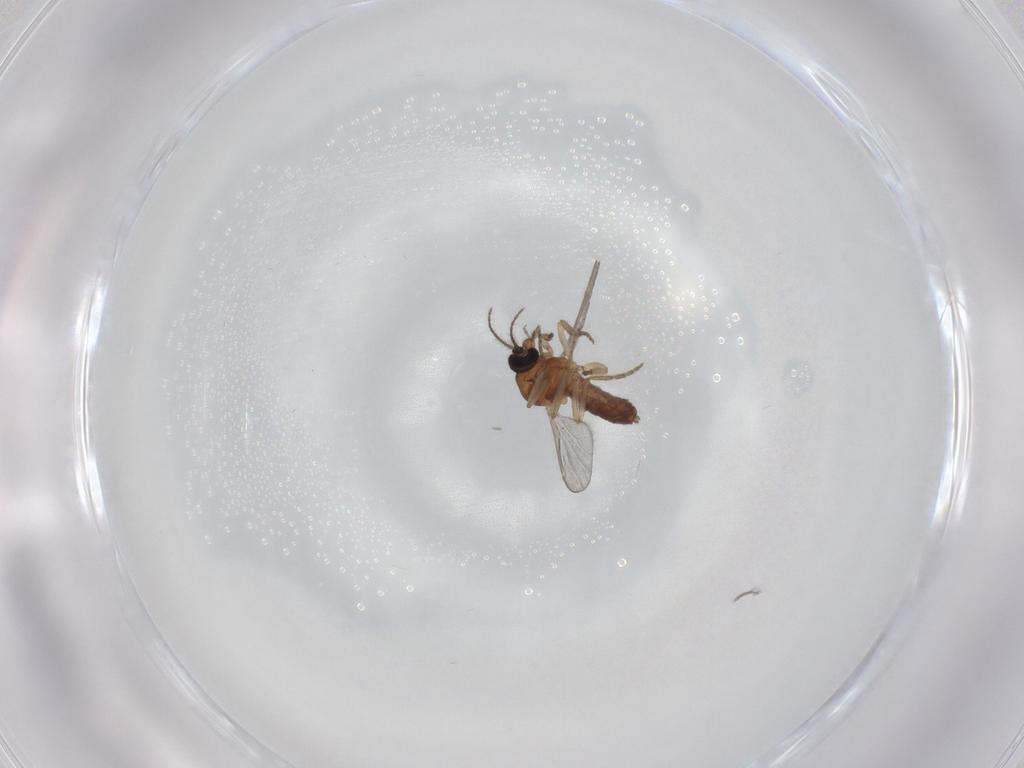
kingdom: Animalia
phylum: Arthropoda
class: Insecta
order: Diptera
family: Ceratopogonidae
